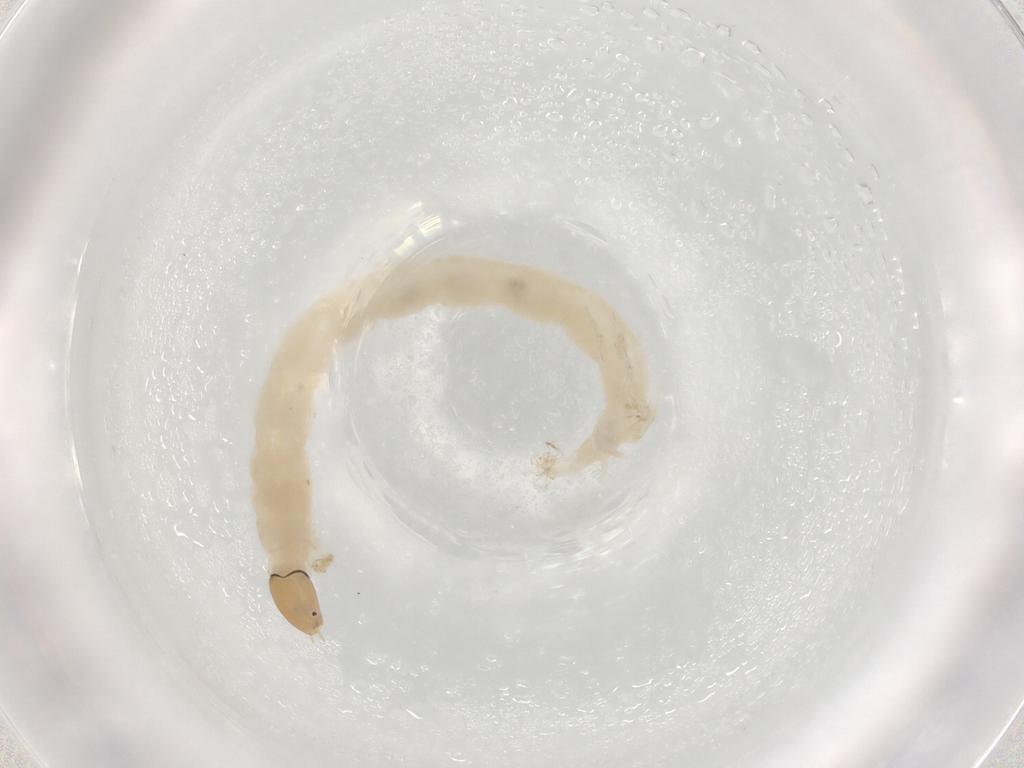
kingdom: Animalia
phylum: Arthropoda
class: Insecta
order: Diptera
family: Chironomidae
